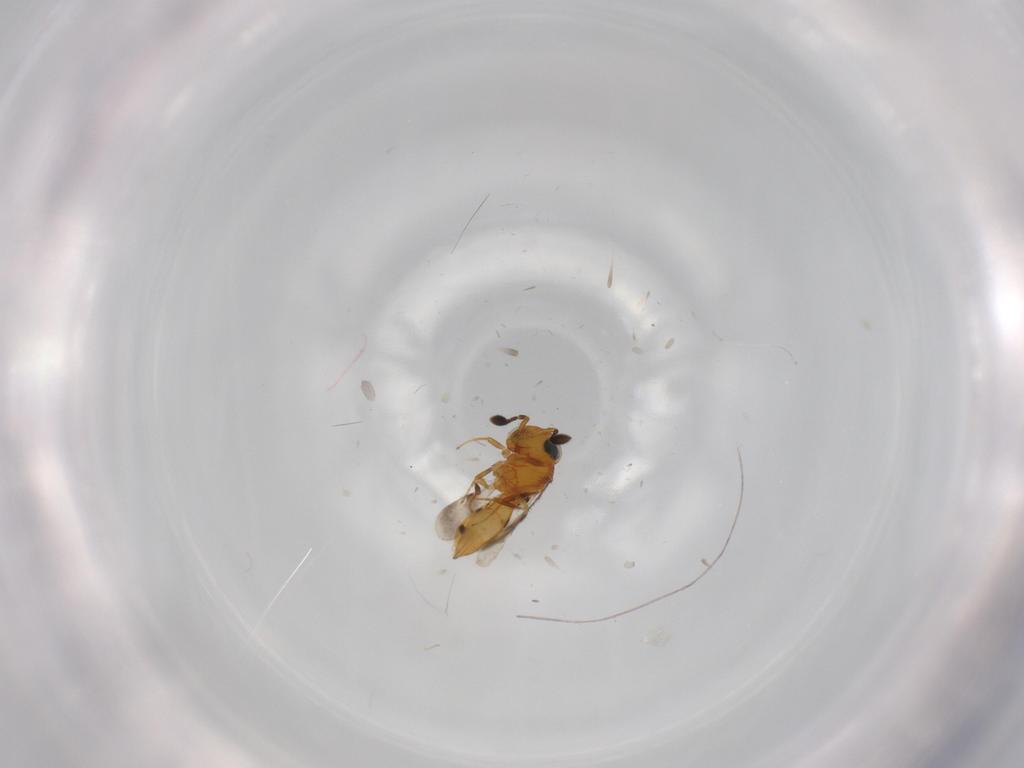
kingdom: Animalia
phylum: Arthropoda
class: Insecta
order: Hymenoptera
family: Scelionidae
